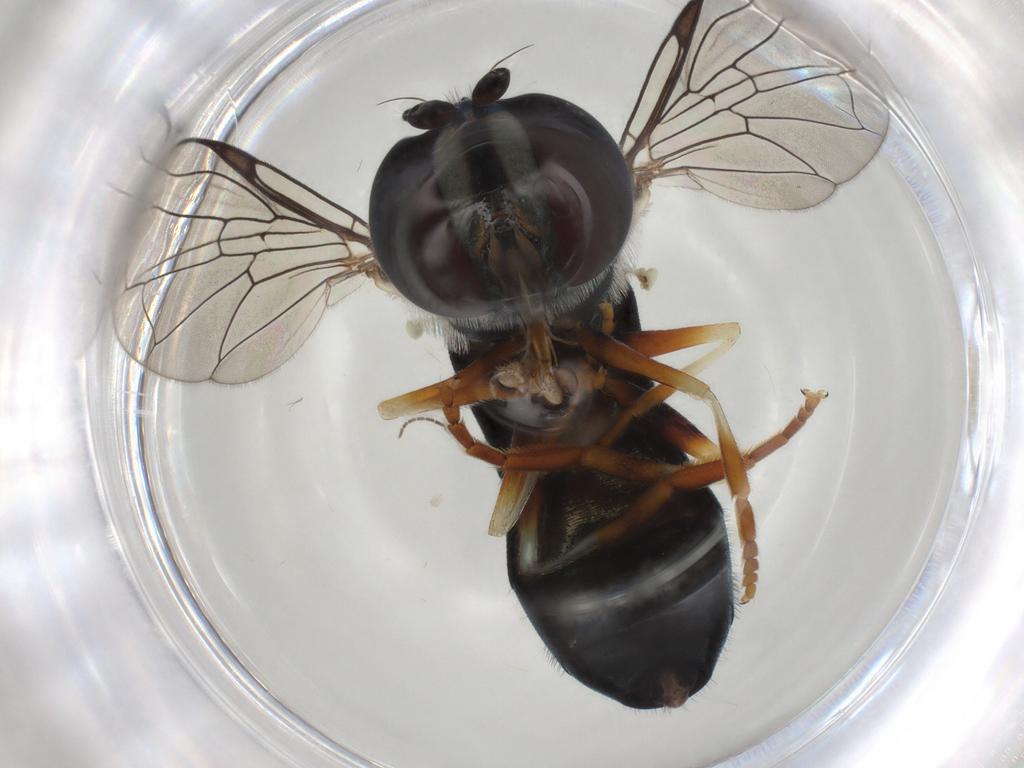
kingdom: Animalia
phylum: Arthropoda
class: Insecta
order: Diptera
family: Cecidomyiidae
